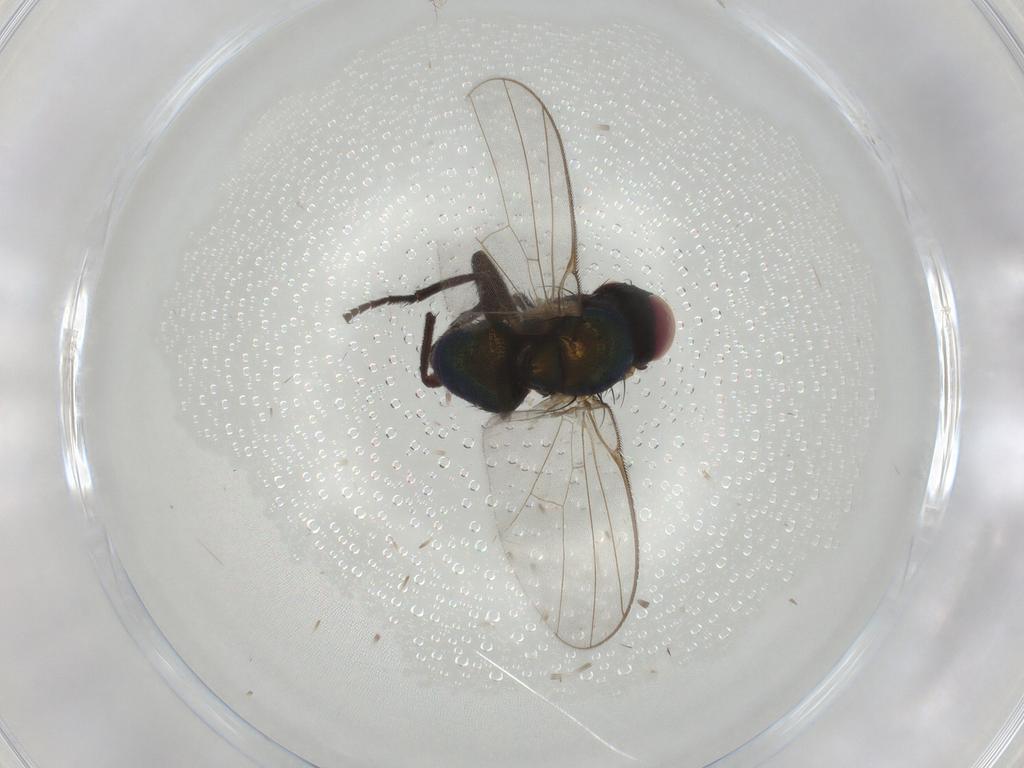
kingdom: Animalia
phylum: Arthropoda
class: Insecta
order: Diptera
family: Agromyzidae
